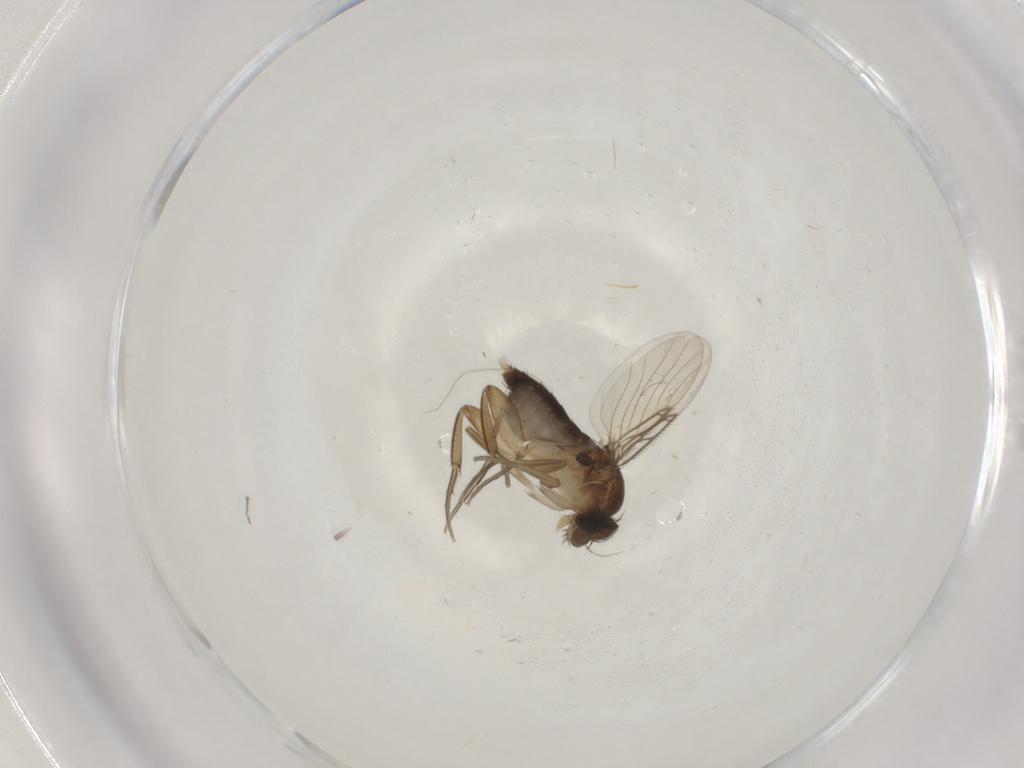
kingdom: Animalia
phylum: Arthropoda
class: Insecta
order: Diptera
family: Phoridae
